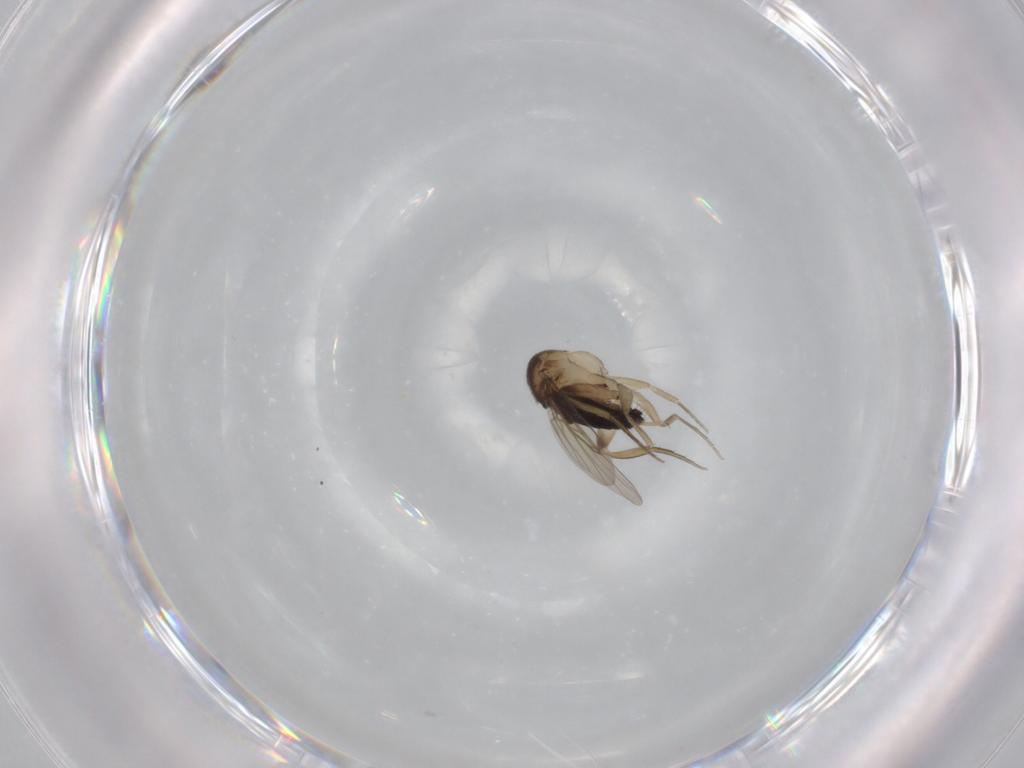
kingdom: Animalia
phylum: Arthropoda
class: Insecta
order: Diptera
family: Phoridae
